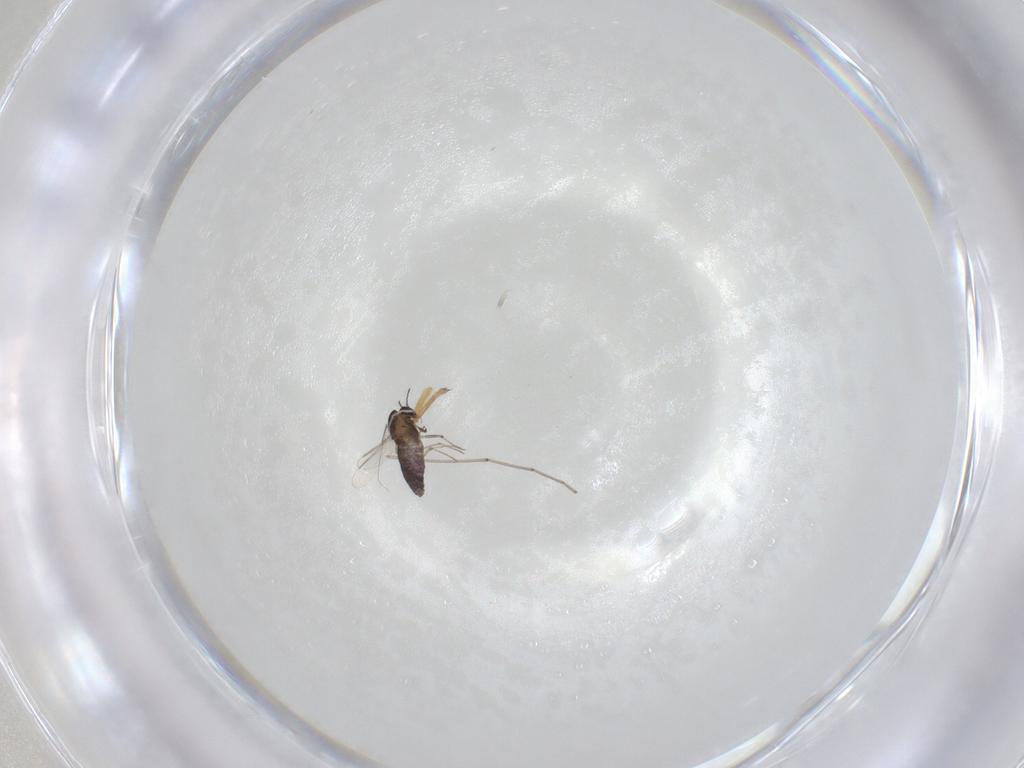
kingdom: Animalia
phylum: Arthropoda
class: Insecta
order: Diptera
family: Chironomidae
